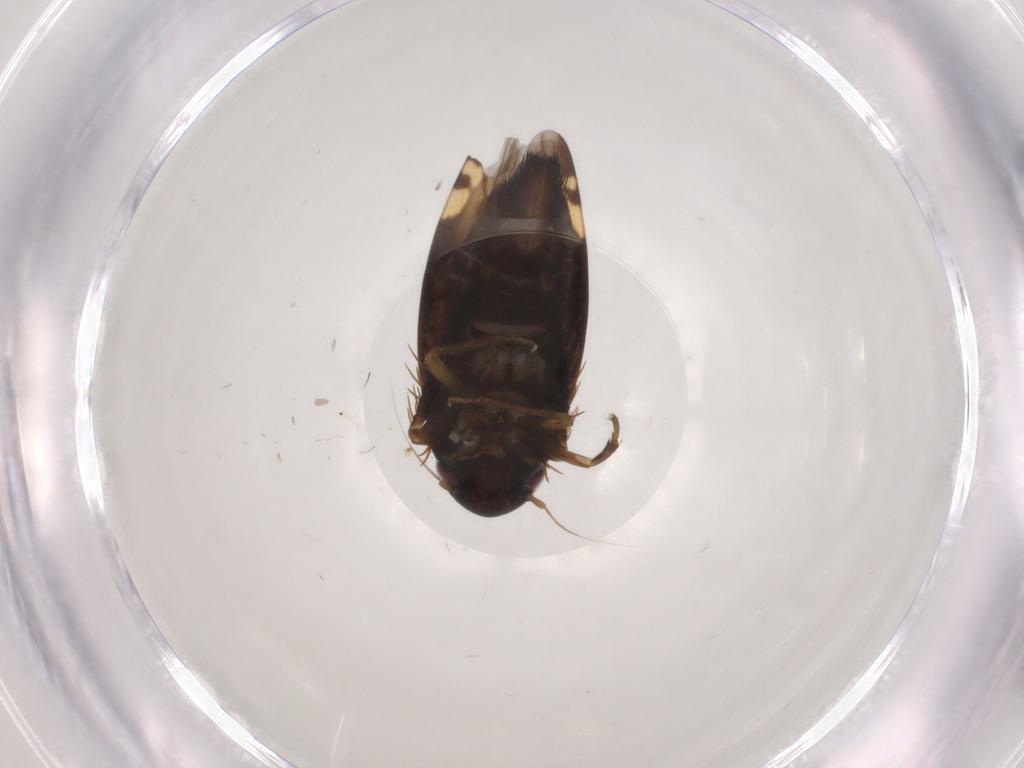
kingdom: Animalia
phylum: Arthropoda
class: Insecta
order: Hemiptera
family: Cicadellidae
